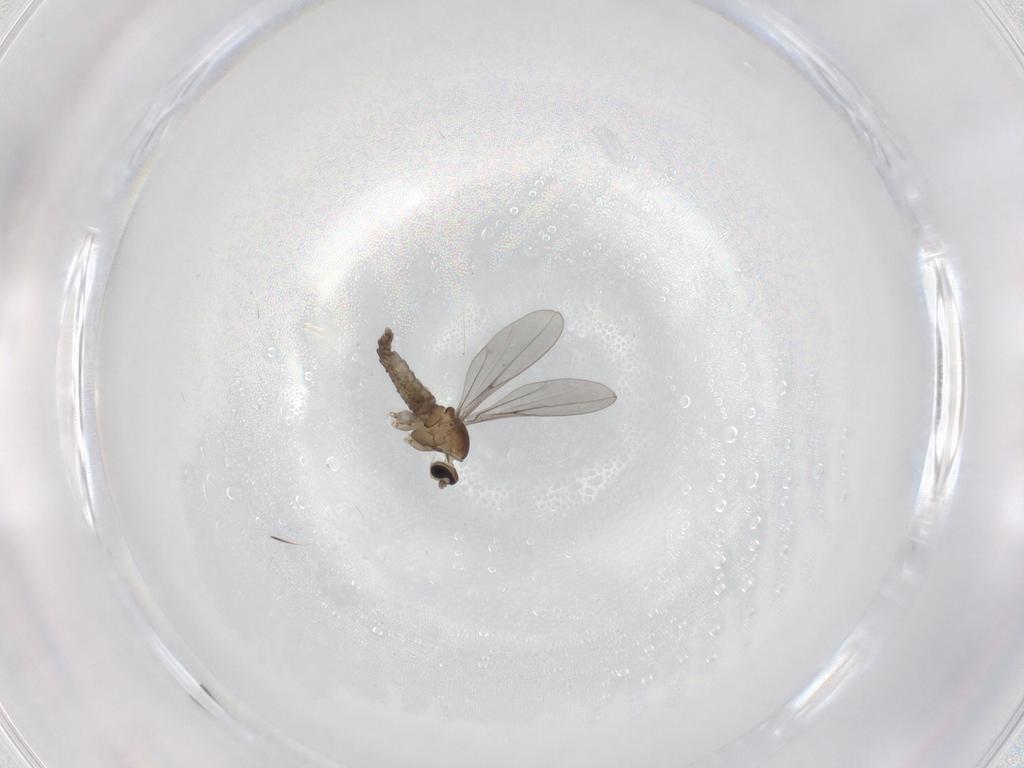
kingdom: Animalia
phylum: Arthropoda
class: Insecta
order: Diptera
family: Cecidomyiidae
